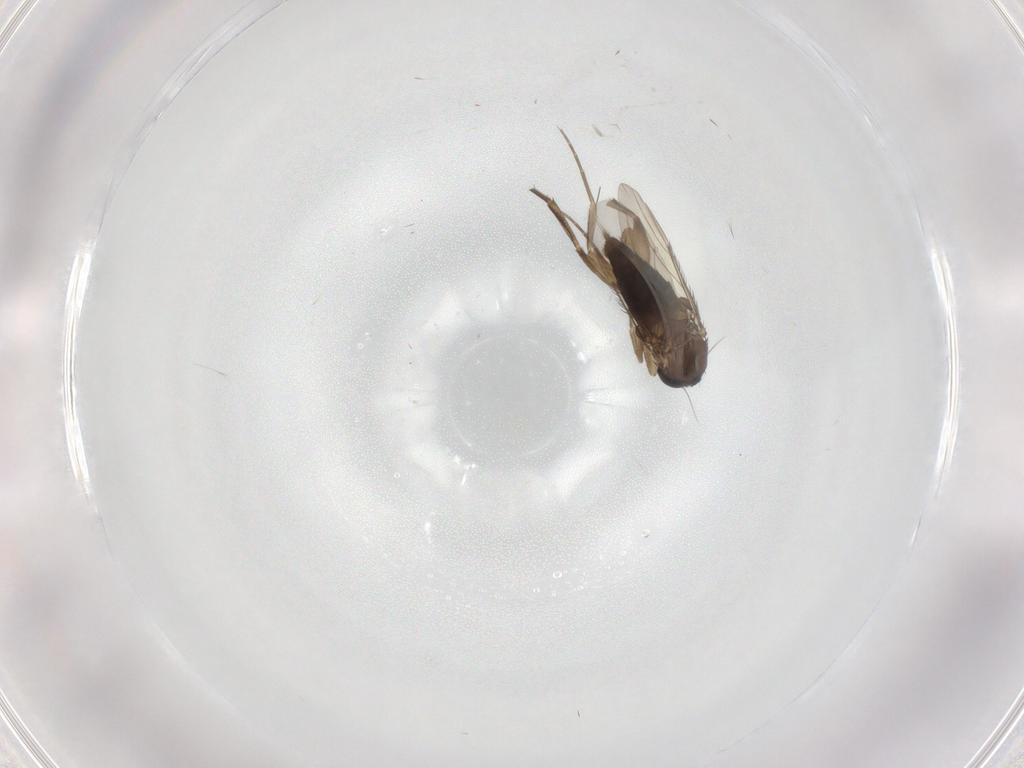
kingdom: Animalia
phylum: Arthropoda
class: Insecta
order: Diptera
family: Phoridae
